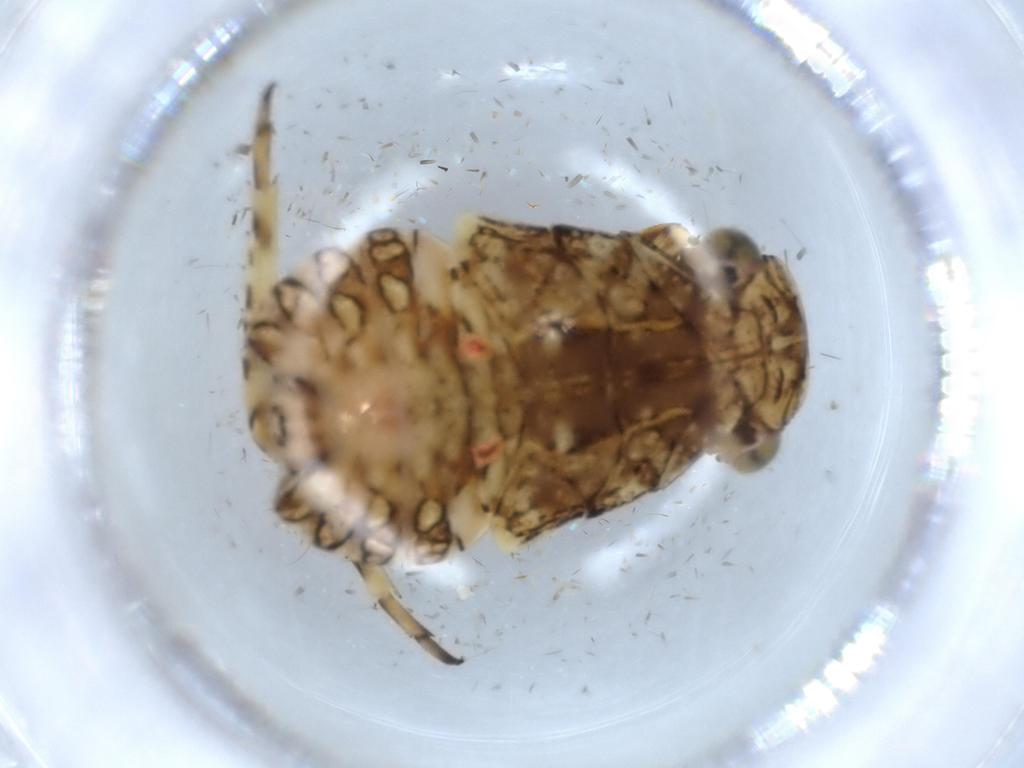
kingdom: Animalia
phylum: Arthropoda
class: Insecta
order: Hemiptera
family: Fulgoridae
